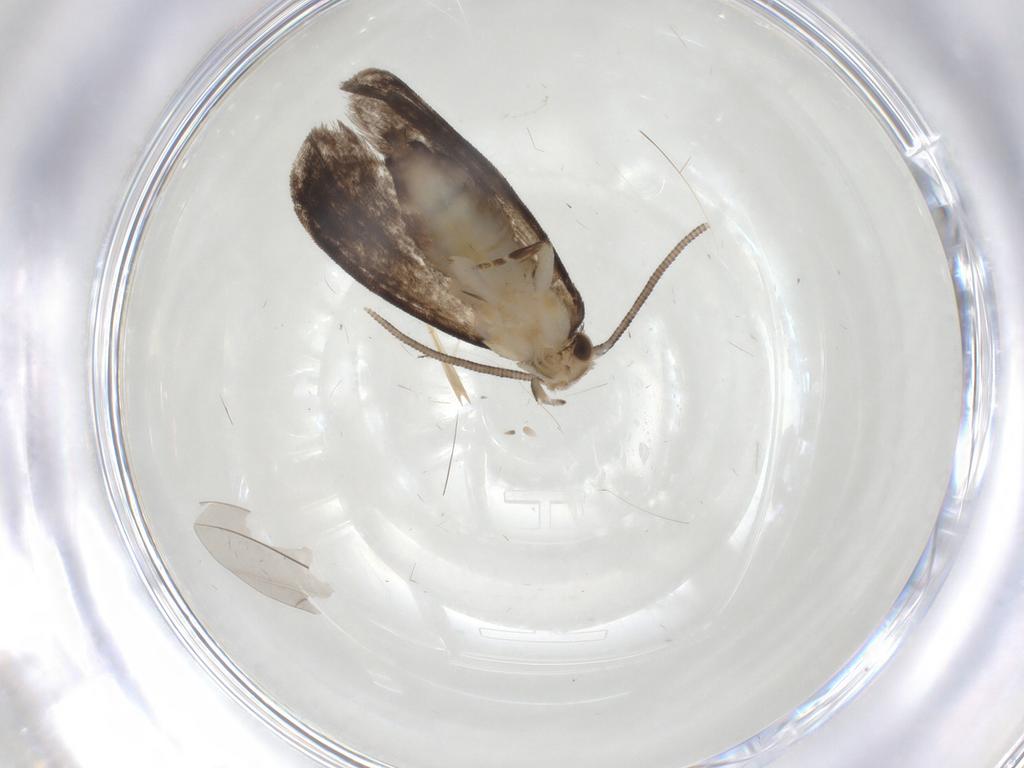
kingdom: Animalia
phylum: Arthropoda
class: Insecta
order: Lepidoptera
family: Dryadaulidae
